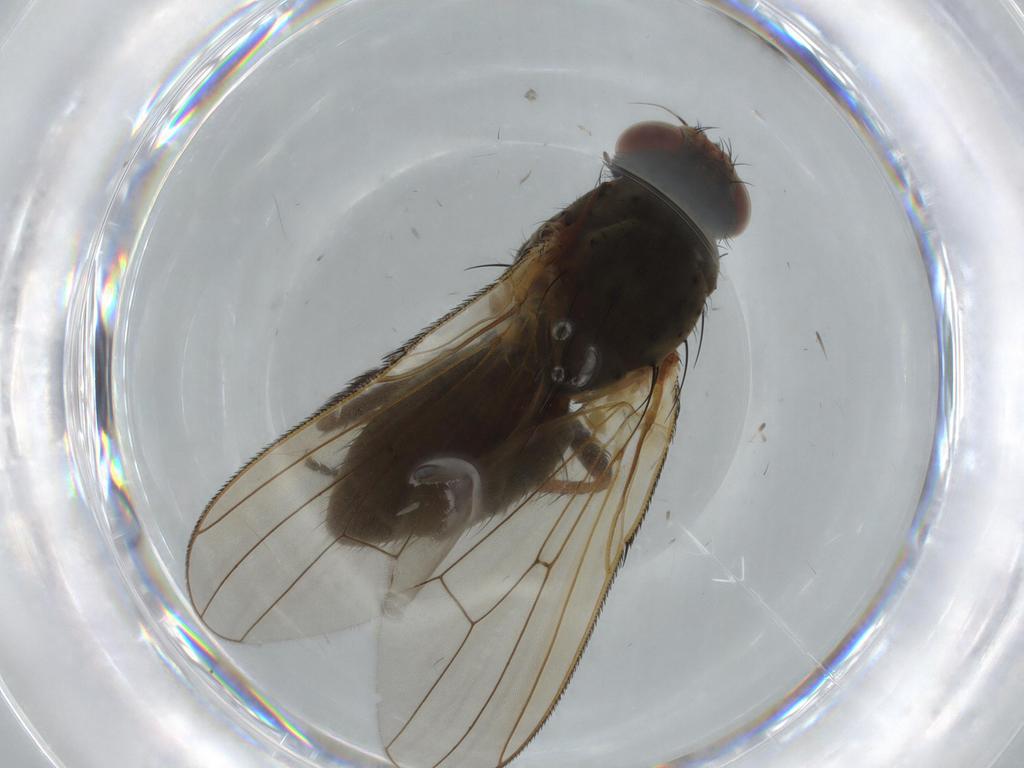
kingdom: Animalia
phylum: Arthropoda
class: Insecta
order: Diptera
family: Anthomyiidae
